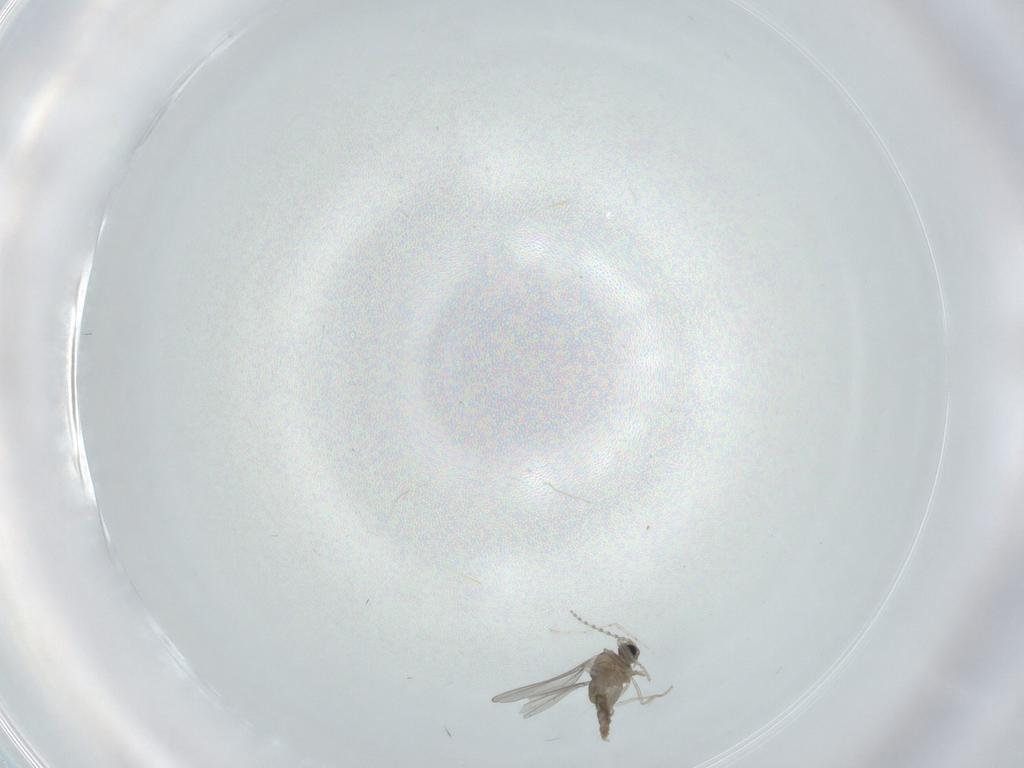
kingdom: Animalia
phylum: Arthropoda
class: Insecta
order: Diptera
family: Cecidomyiidae
